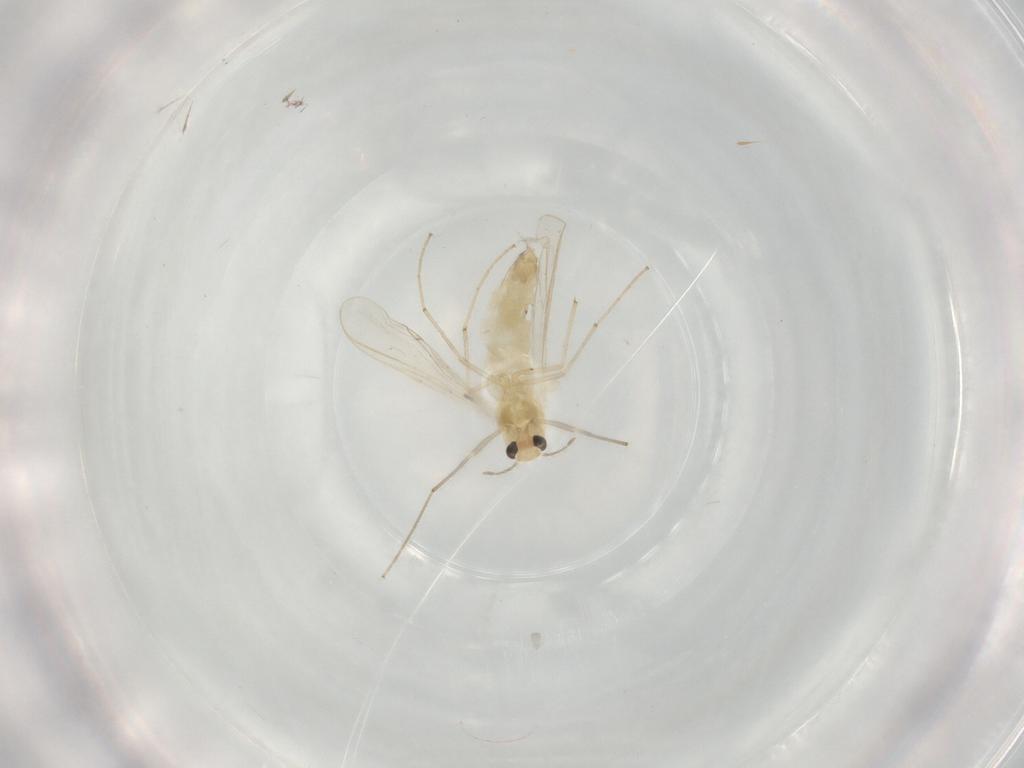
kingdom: Animalia
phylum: Arthropoda
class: Insecta
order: Diptera
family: Chironomidae
